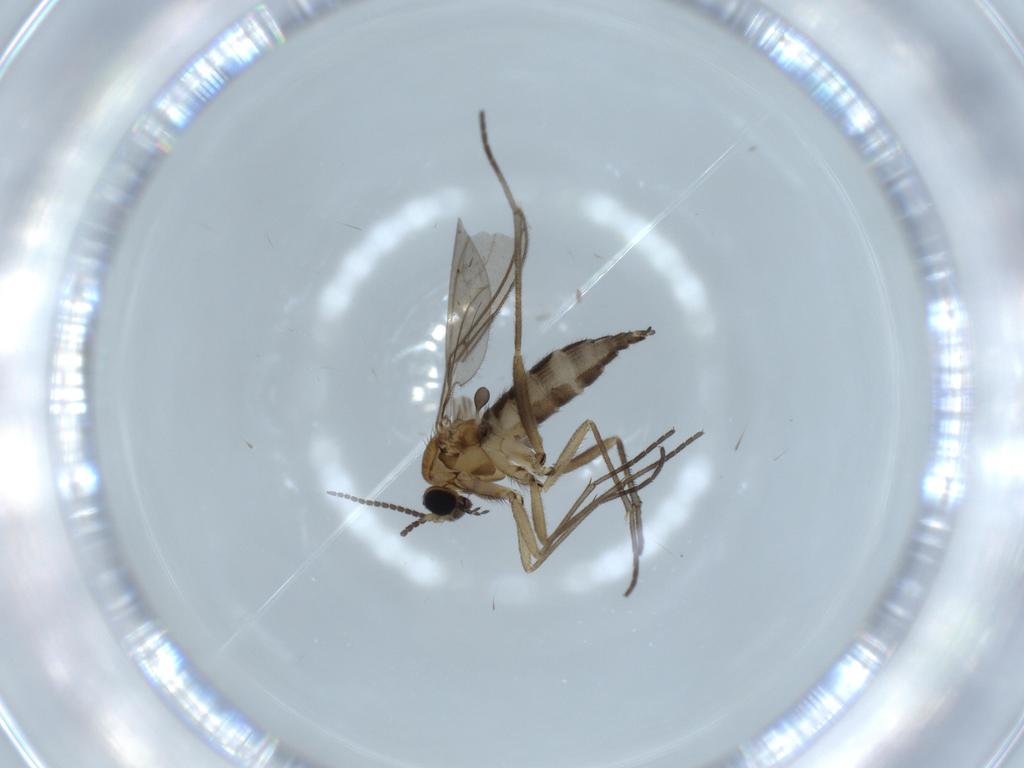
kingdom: Animalia
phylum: Arthropoda
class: Insecta
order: Diptera
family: Sciaridae
